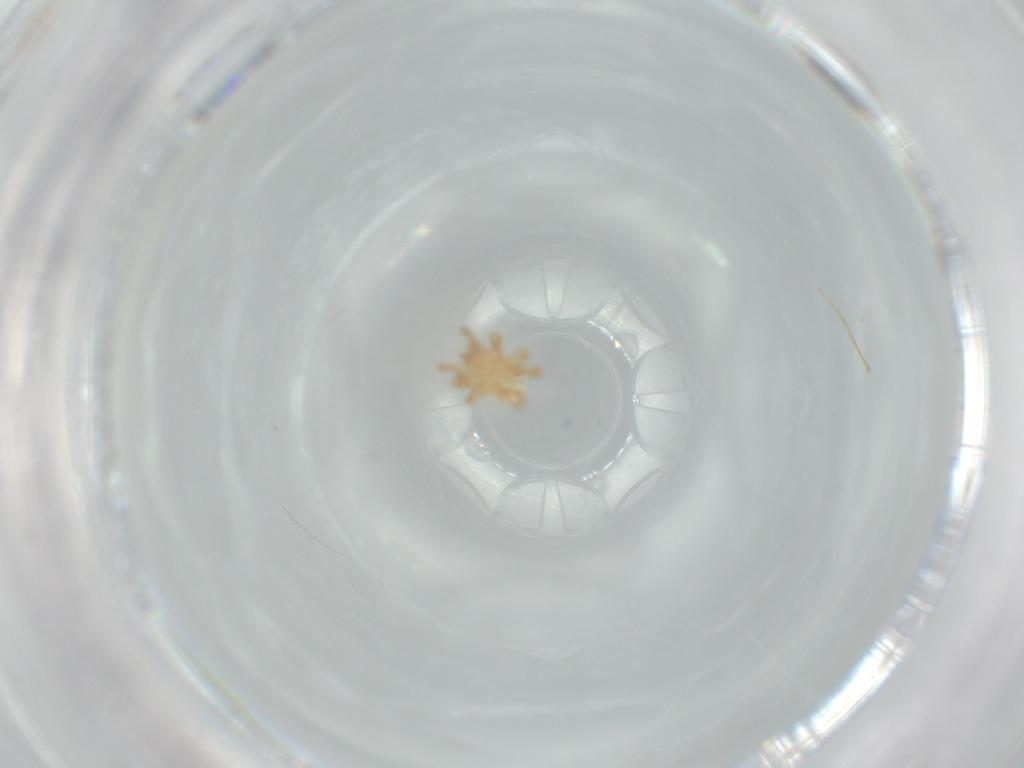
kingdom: Animalia
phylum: Arthropoda
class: Arachnida
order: Mesostigmata
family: Parasitidae
